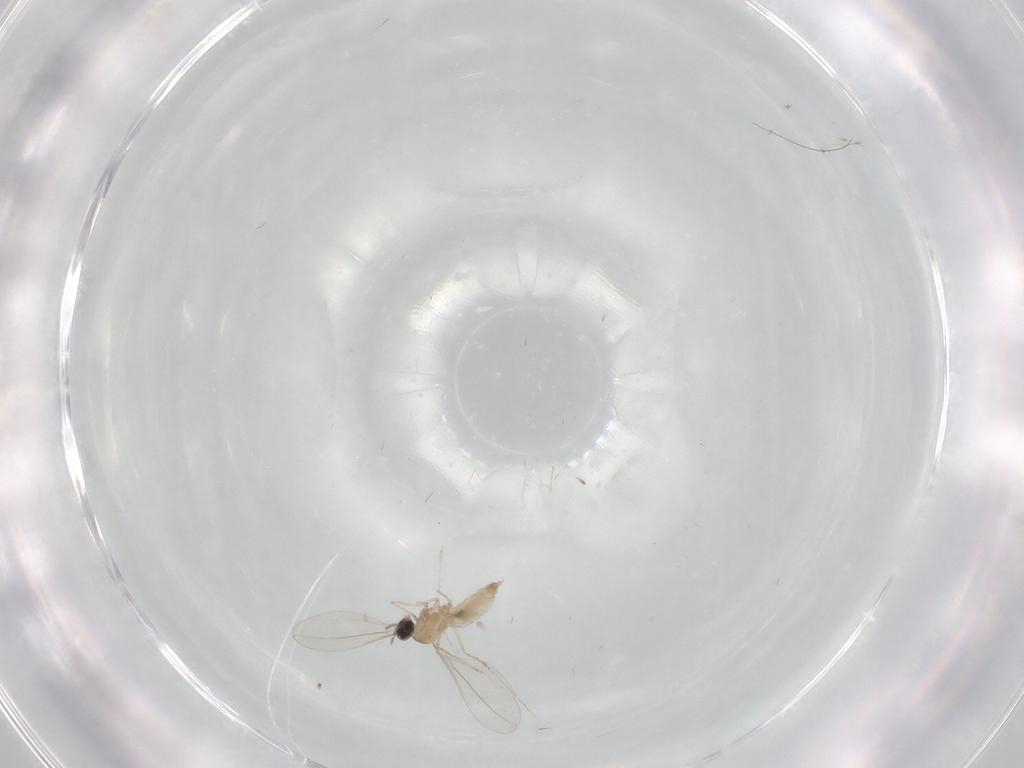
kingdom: Animalia
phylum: Arthropoda
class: Insecta
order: Diptera
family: Cecidomyiidae
